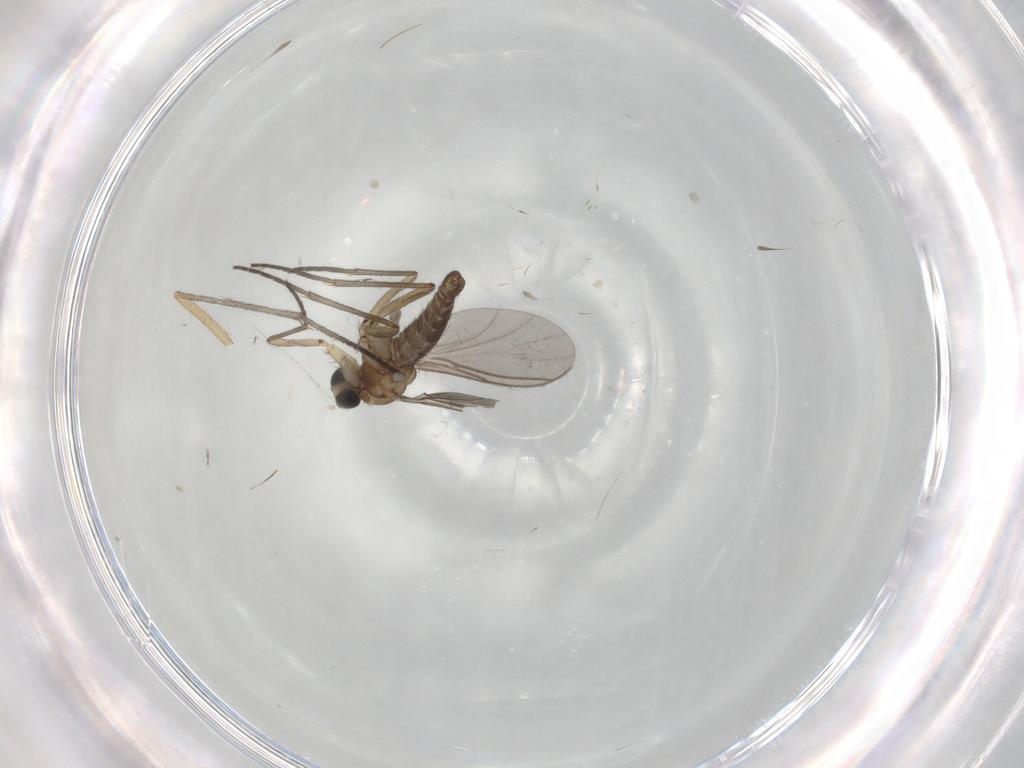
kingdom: Animalia
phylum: Arthropoda
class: Insecta
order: Diptera
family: Sciaridae
